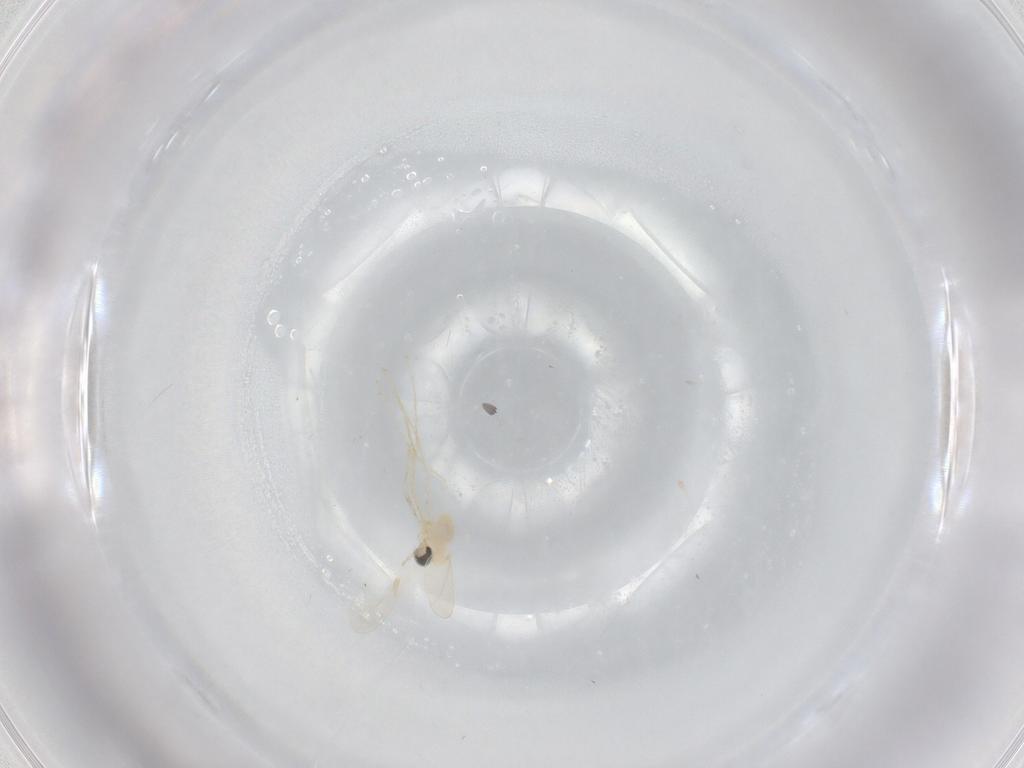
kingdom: Animalia
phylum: Arthropoda
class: Insecta
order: Diptera
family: Cecidomyiidae
